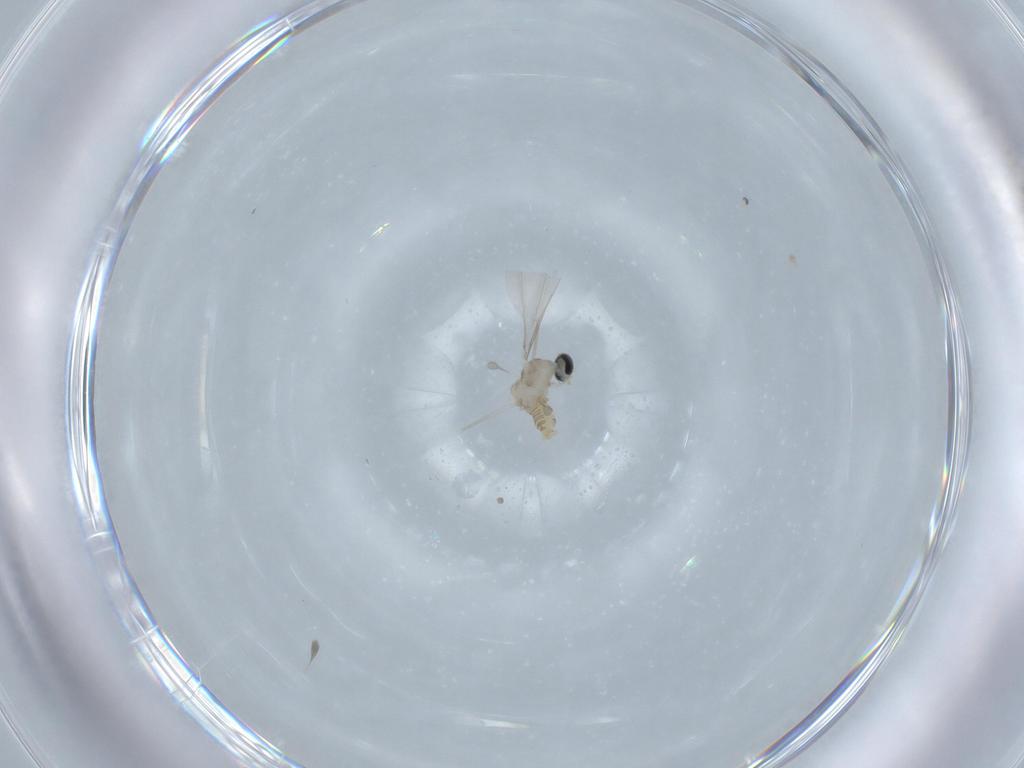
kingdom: Animalia
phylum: Arthropoda
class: Insecta
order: Diptera
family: Cecidomyiidae
